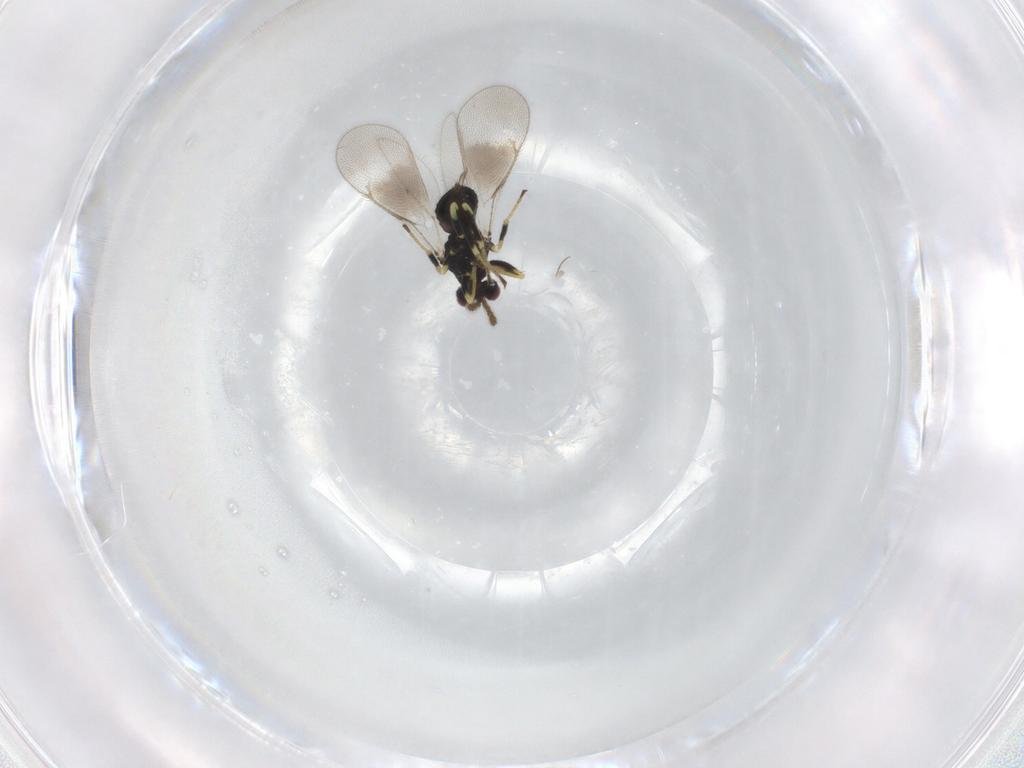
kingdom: Animalia
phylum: Arthropoda
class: Insecta
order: Hymenoptera
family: Eulophidae
